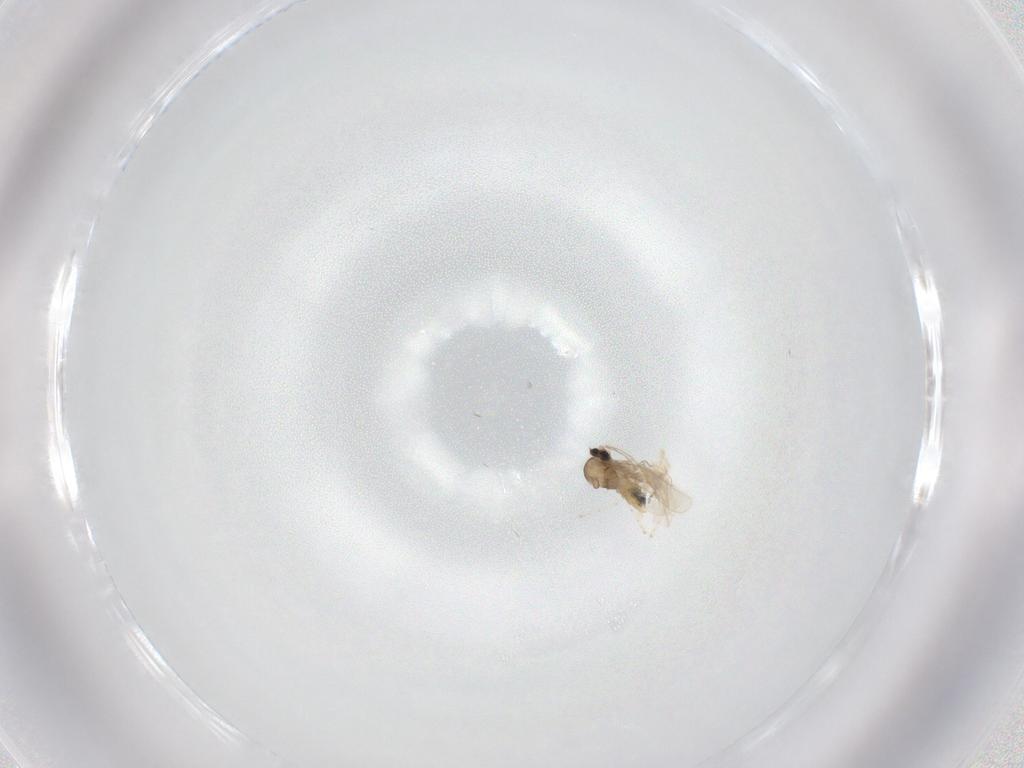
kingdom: Animalia
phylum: Arthropoda
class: Insecta
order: Diptera
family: Cecidomyiidae
